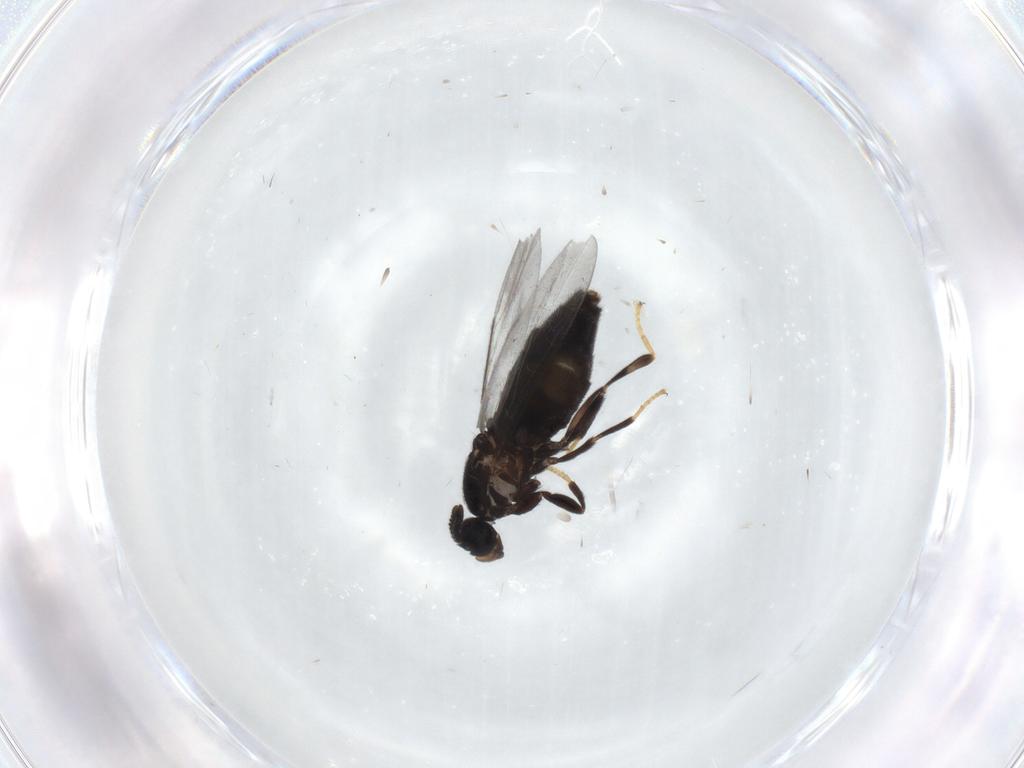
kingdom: Animalia
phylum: Arthropoda
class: Insecta
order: Diptera
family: Scatopsidae
